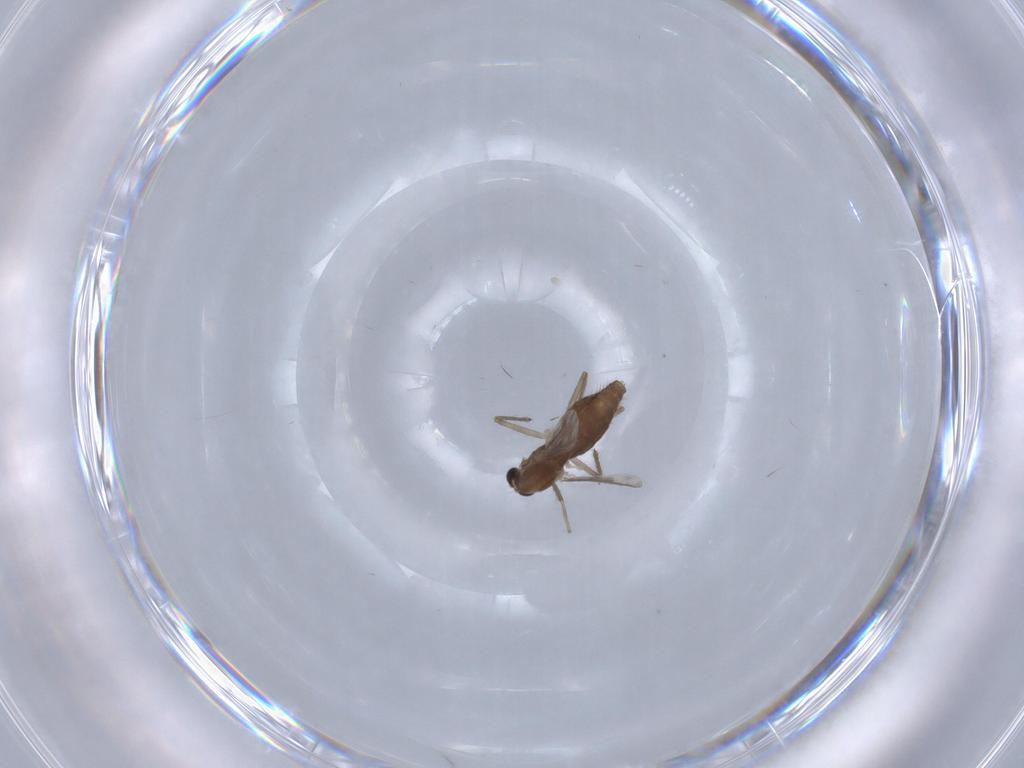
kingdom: Animalia
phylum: Arthropoda
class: Insecta
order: Diptera
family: Chironomidae
